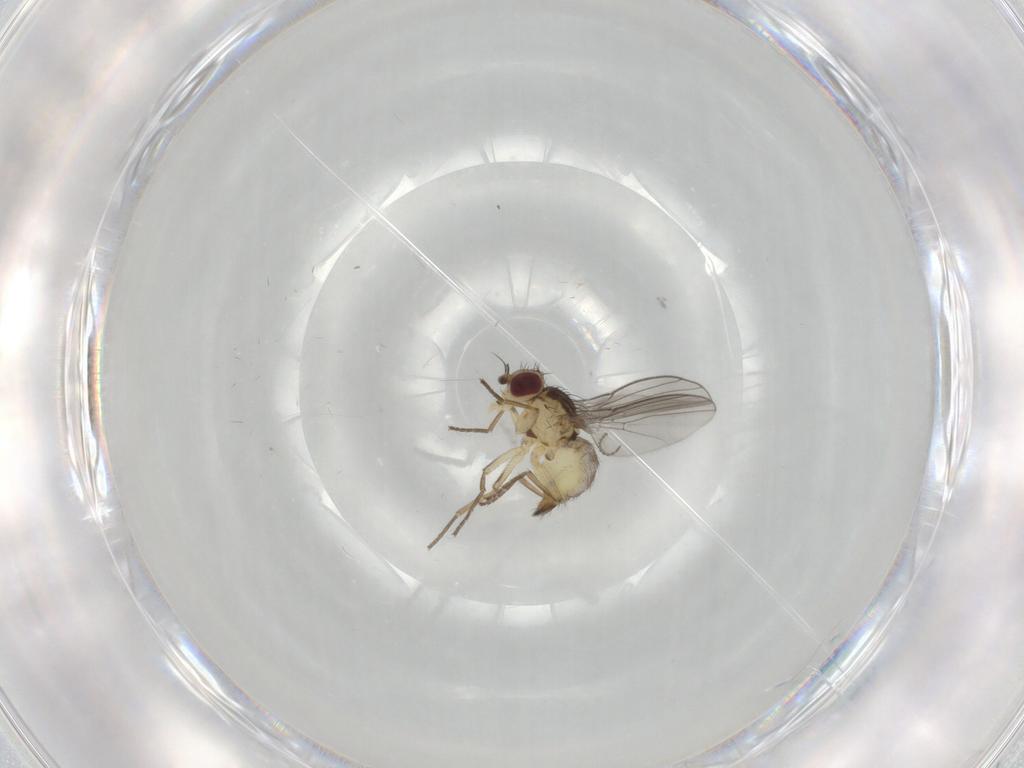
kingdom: Animalia
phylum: Arthropoda
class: Insecta
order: Diptera
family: Agromyzidae
